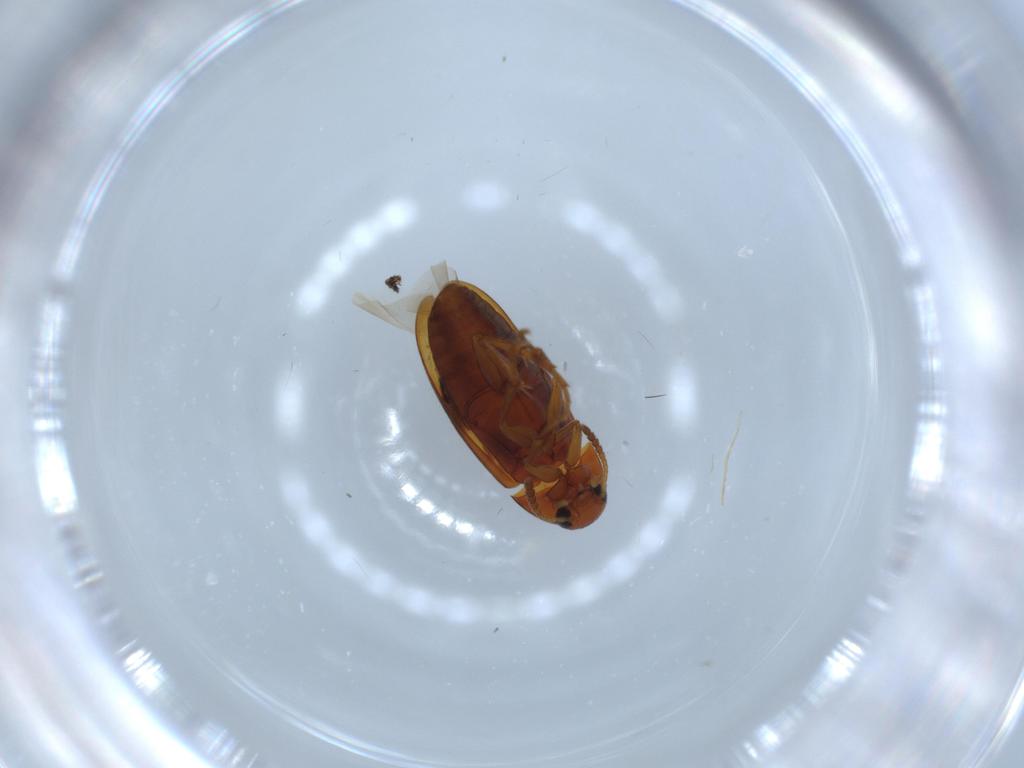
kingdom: Animalia
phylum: Arthropoda
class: Insecta
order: Coleoptera
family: Scraptiidae
